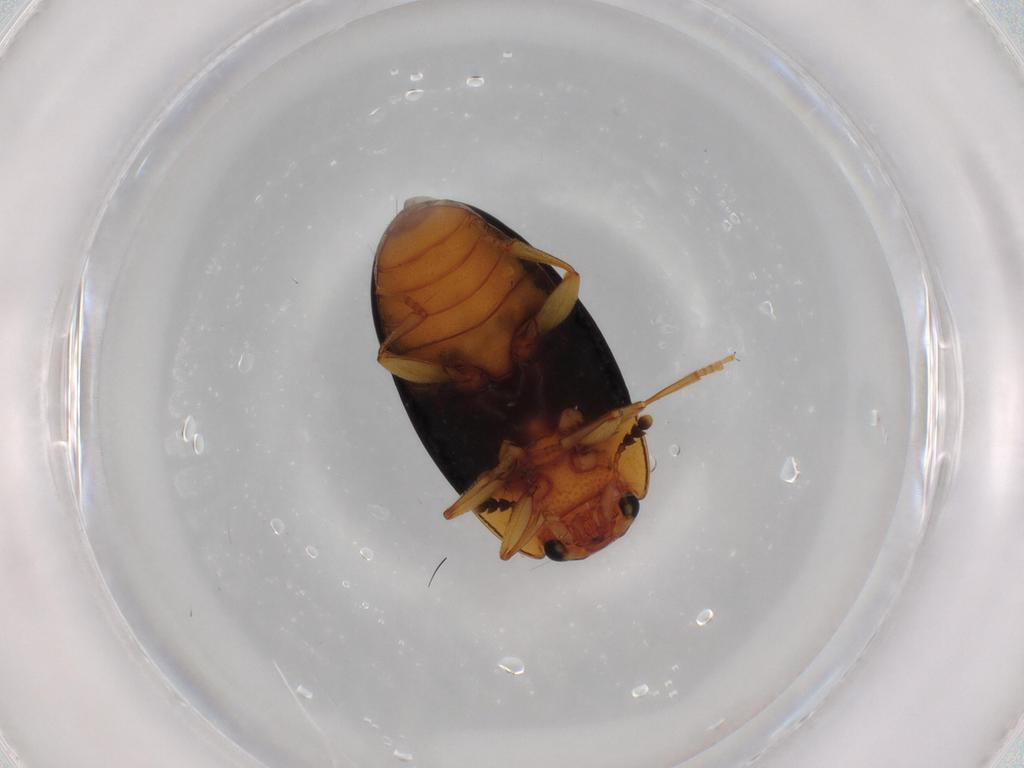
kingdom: Animalia
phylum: Arthropoda
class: Insecta
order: Coleoptera
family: Erotylidae
